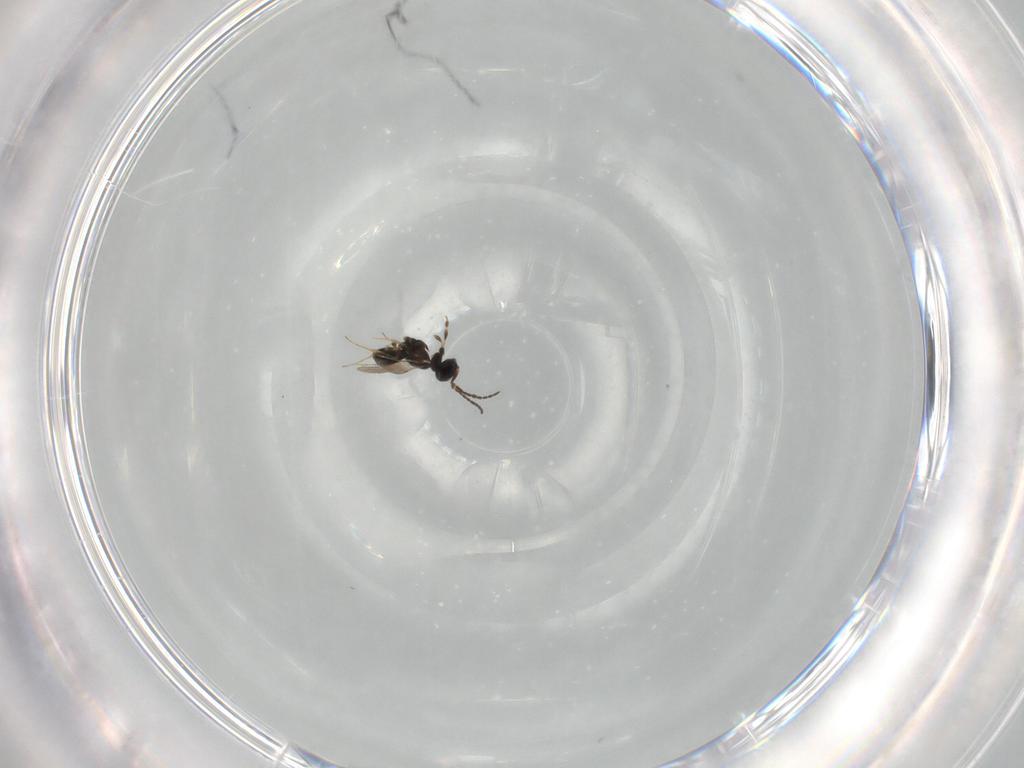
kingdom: Animalia
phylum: Arthropoda
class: Insecta
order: Hymenoptera
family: Scelionidae
